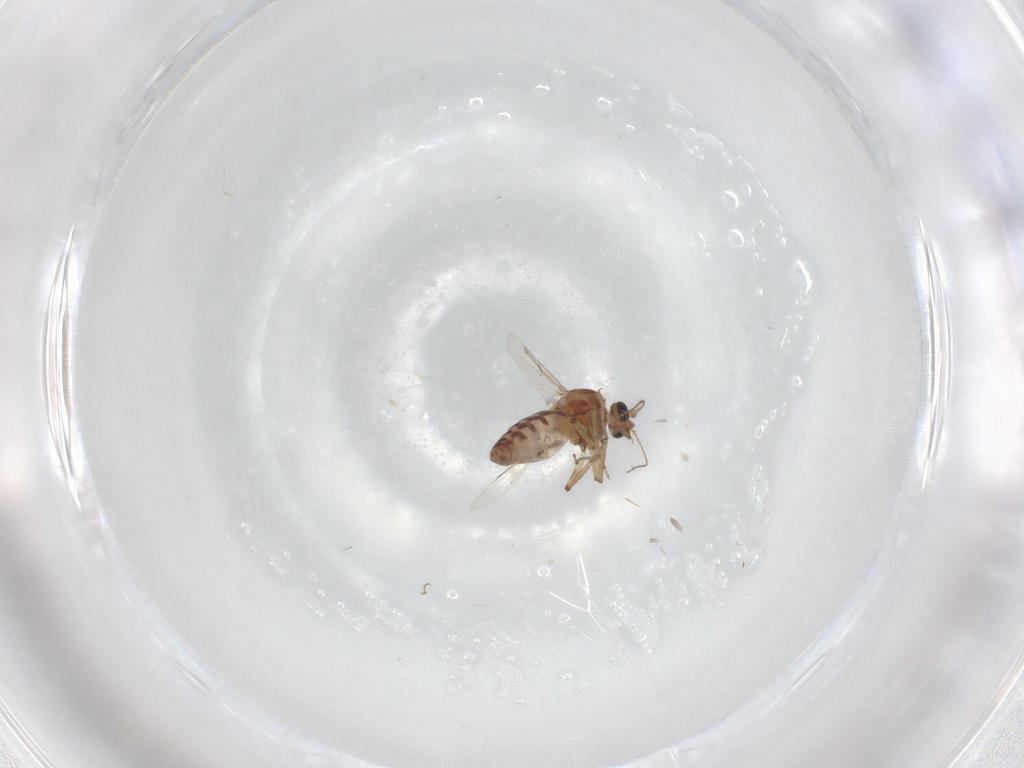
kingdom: Animalia
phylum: Arthropoda
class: Insecta
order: Diptera
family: Ceratopogonidae
